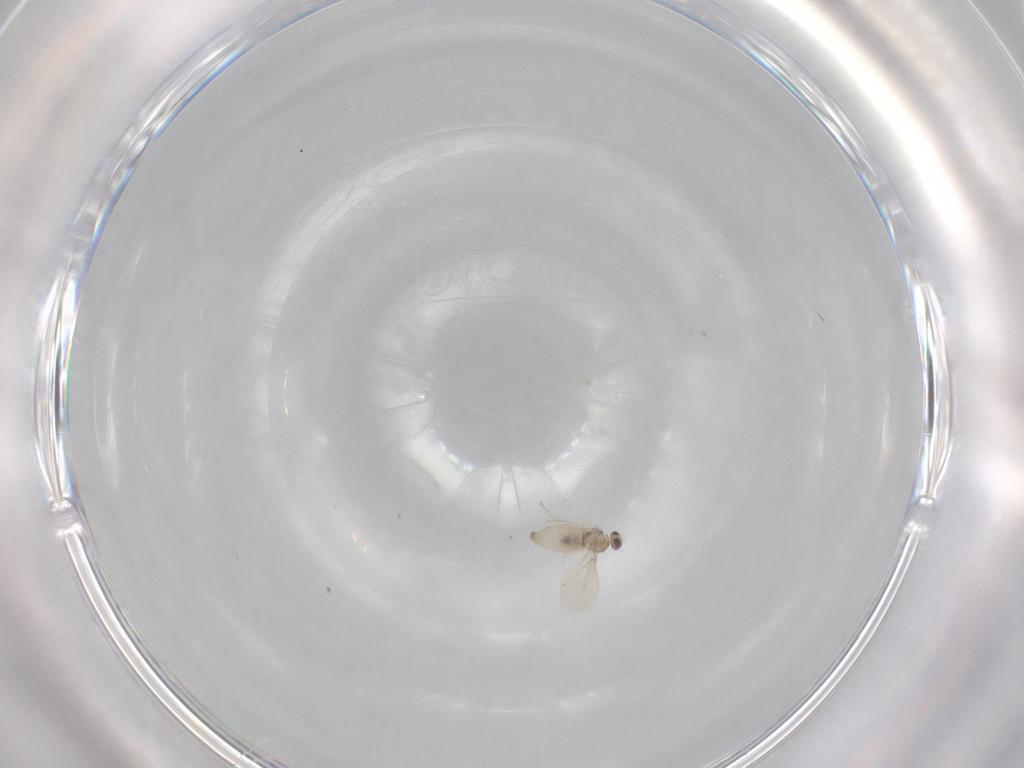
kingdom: Animalia
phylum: Arthropoda
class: Insecta
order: Diptera
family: Cecidomyiidae
